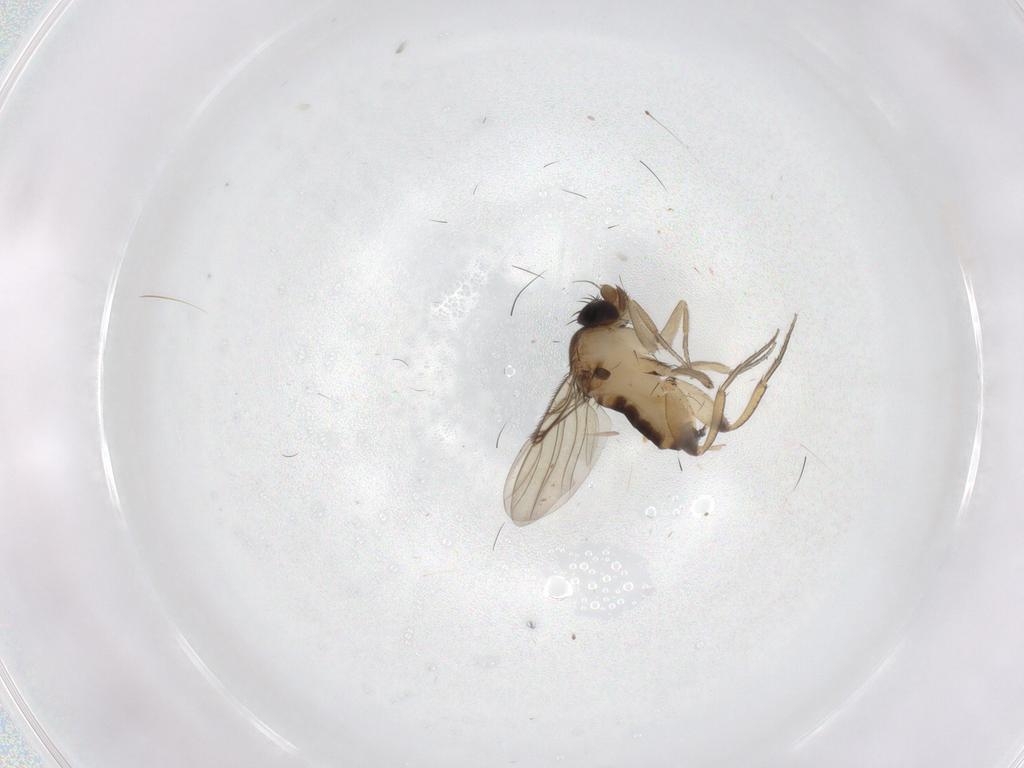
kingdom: Animalia
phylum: Arthropoda
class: Insecta
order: Diptera
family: Phoridae
